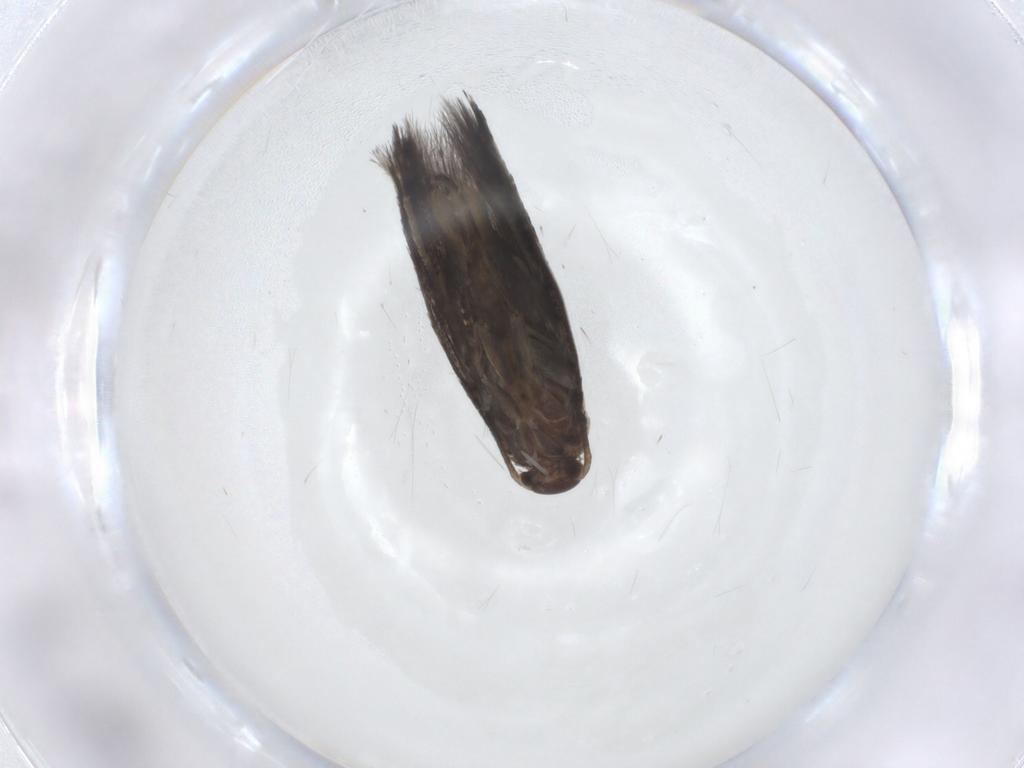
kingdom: Animalia
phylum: Arthropoda
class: Insecta
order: Lepidoptera
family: Elachistidae
